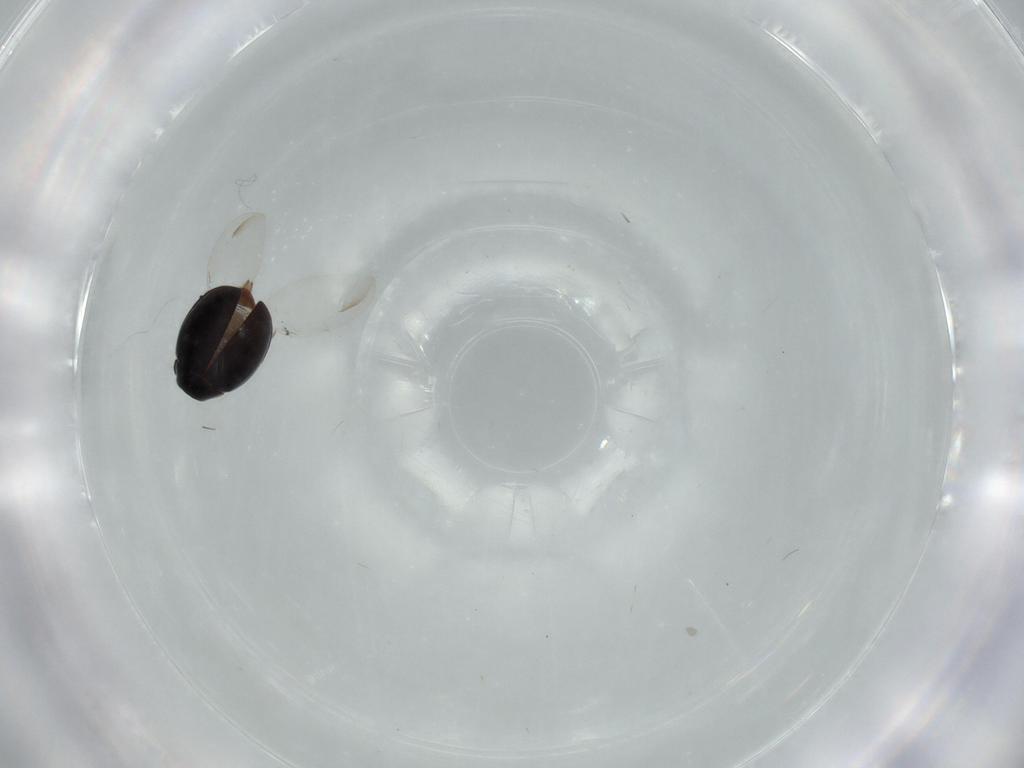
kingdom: Animalia
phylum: Arthropoda
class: Insecta
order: Coleoptera
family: Coccinellidae
